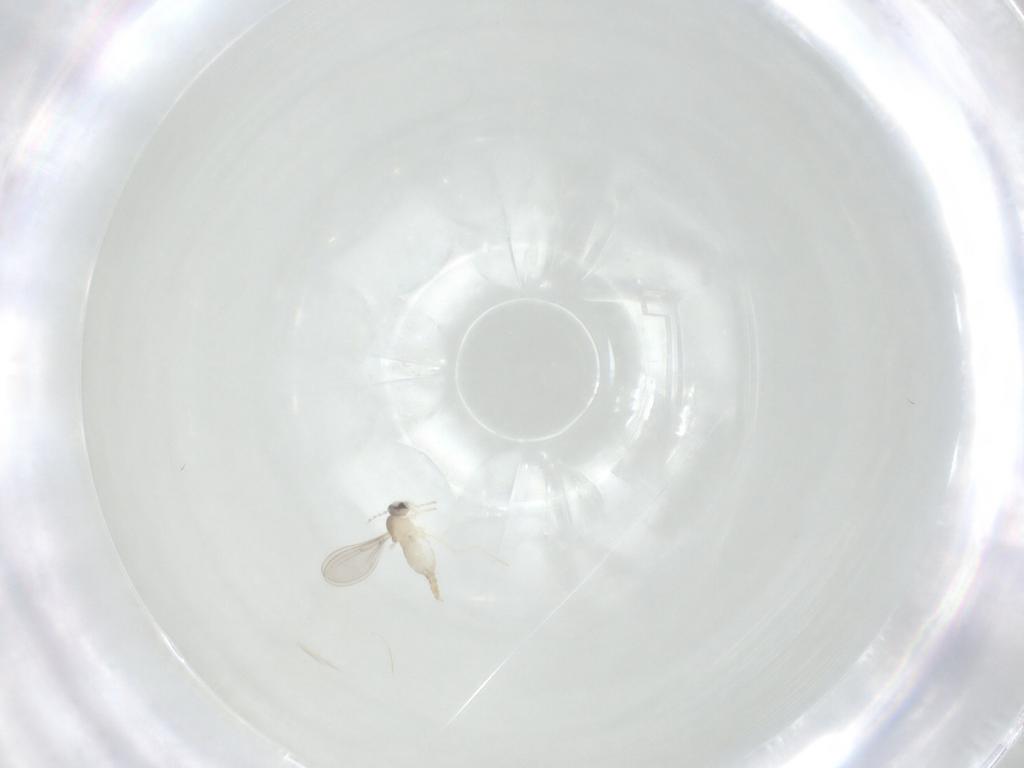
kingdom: Animalia
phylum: Arthropoda
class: Insecta
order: Diptera
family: Cecidomyiidae
